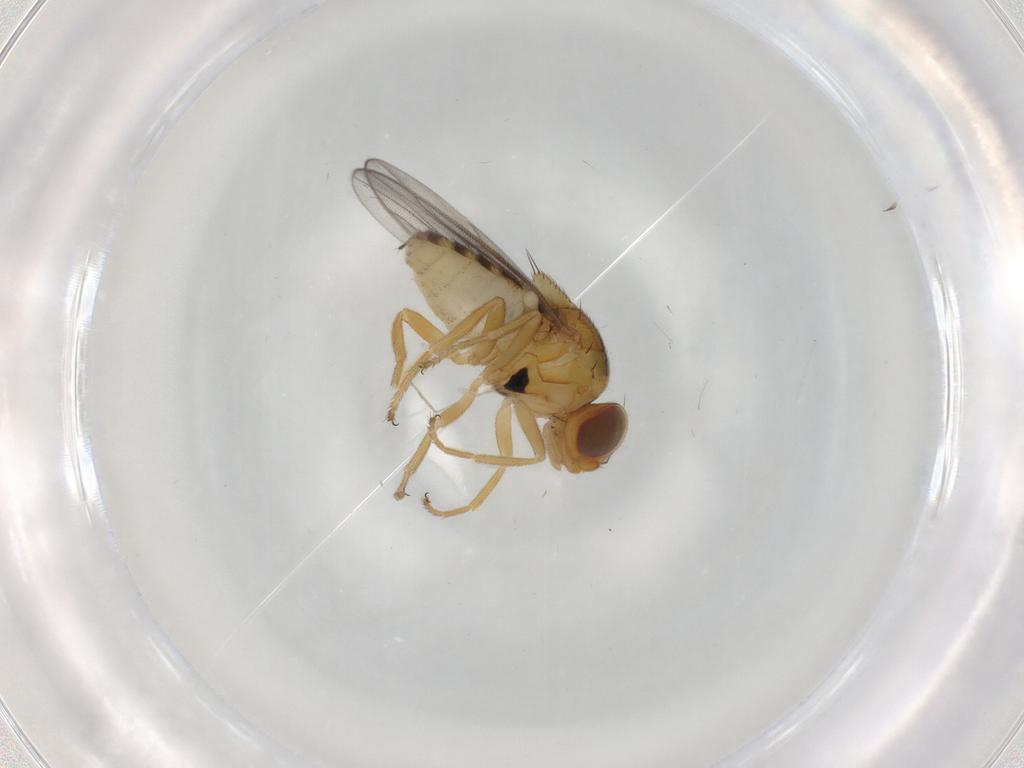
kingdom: Animalia
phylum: Arthropoda
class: Insecta
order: Diptera
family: Chloropidae
